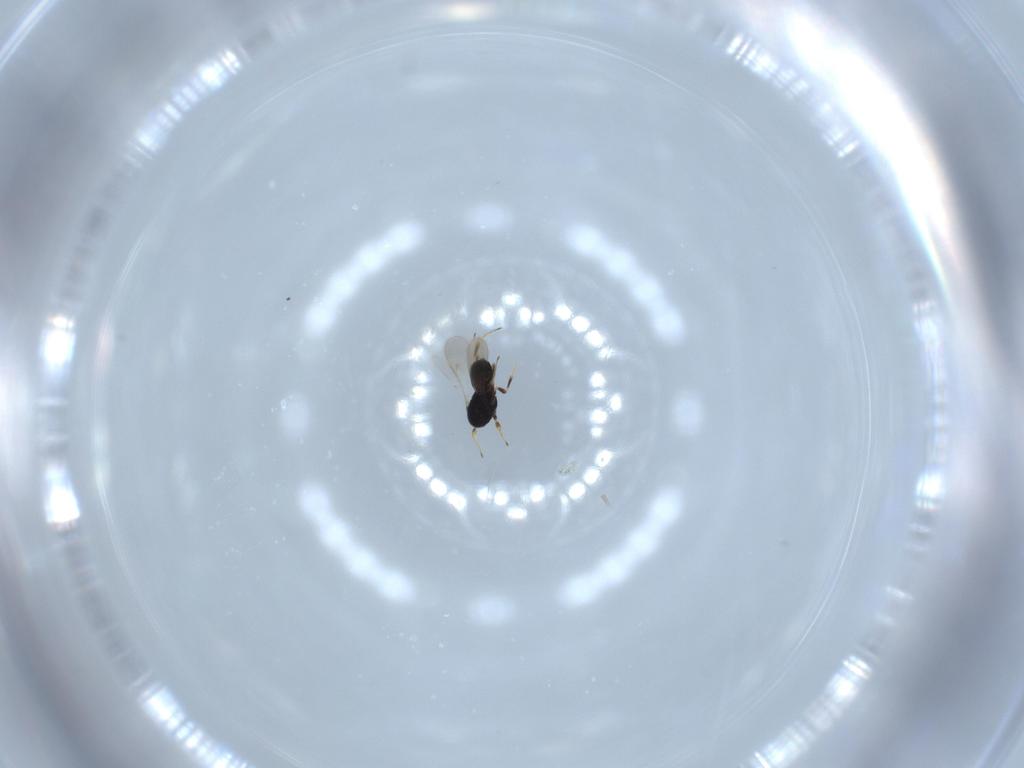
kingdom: Animalia
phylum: Arthropoda
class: Insecta
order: Hymenoptera
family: Scelionidae
